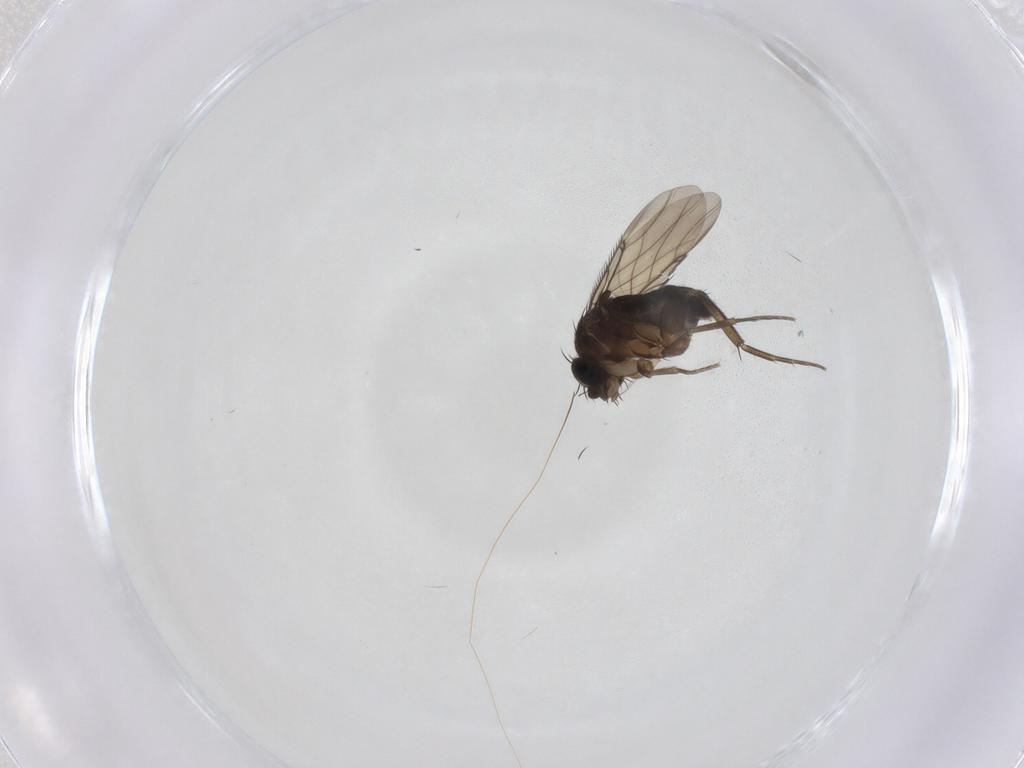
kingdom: Animalia
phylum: Arthropoda
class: Insecta
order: Diptera
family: Phoridae
